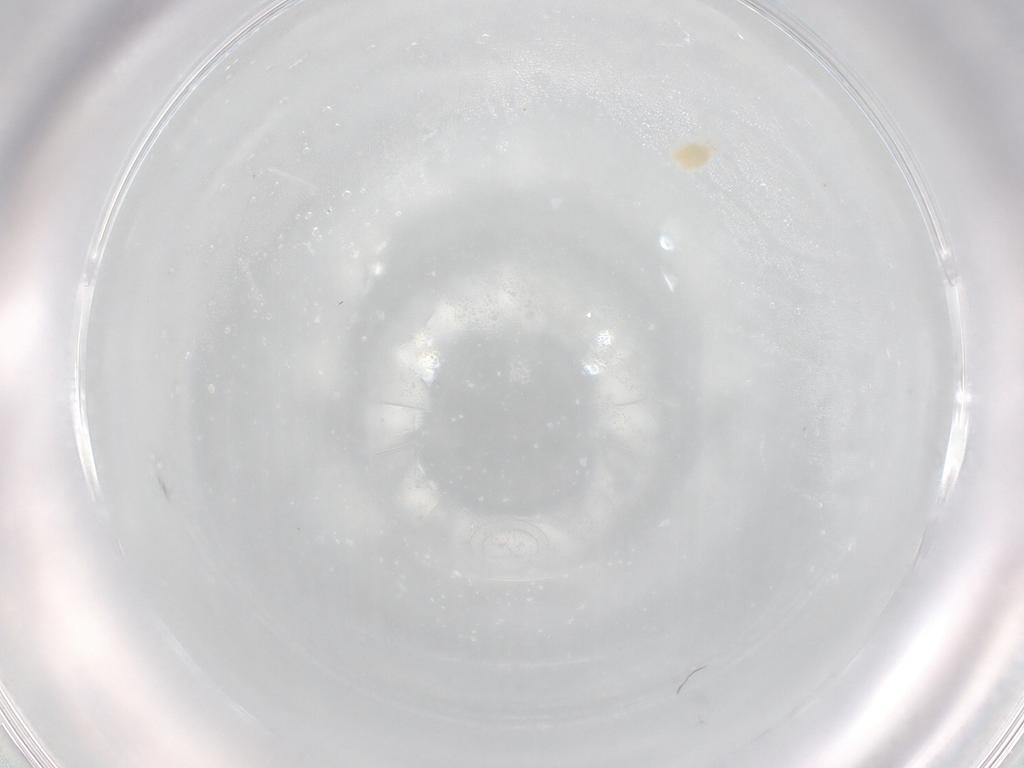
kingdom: Animalia
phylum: Arthropoda
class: Arachnida
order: Trombidiformes
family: Eupodidae
